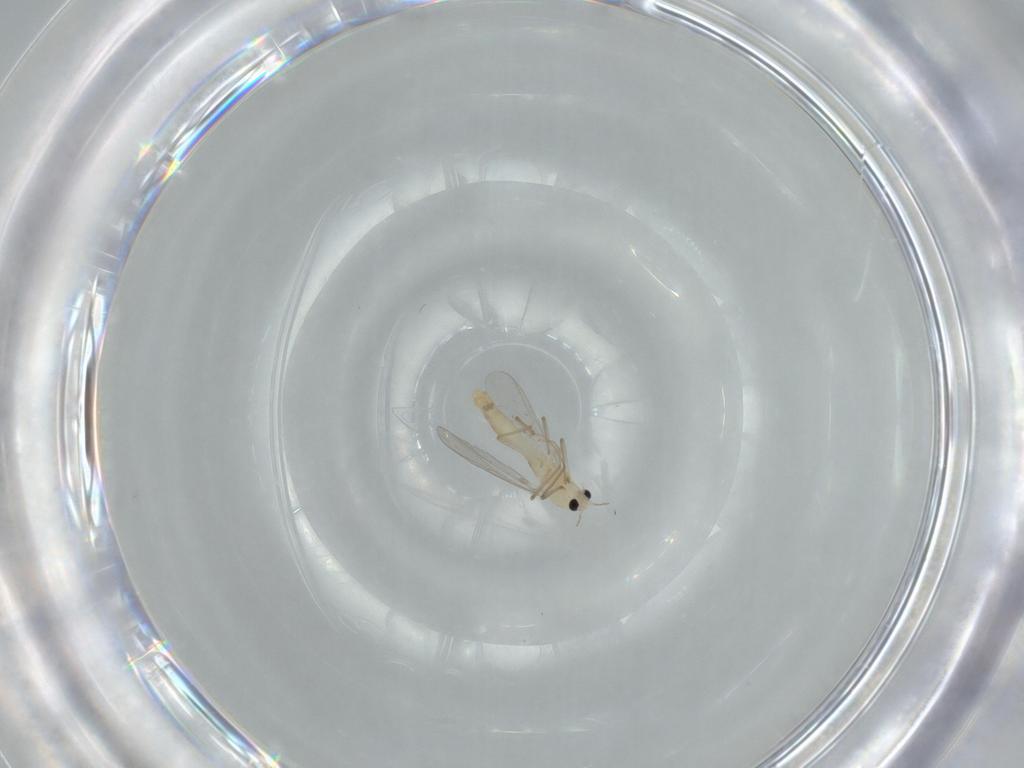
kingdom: Animalia
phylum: Arthropoda
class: Insecta
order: Diptera
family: Chironomidae
